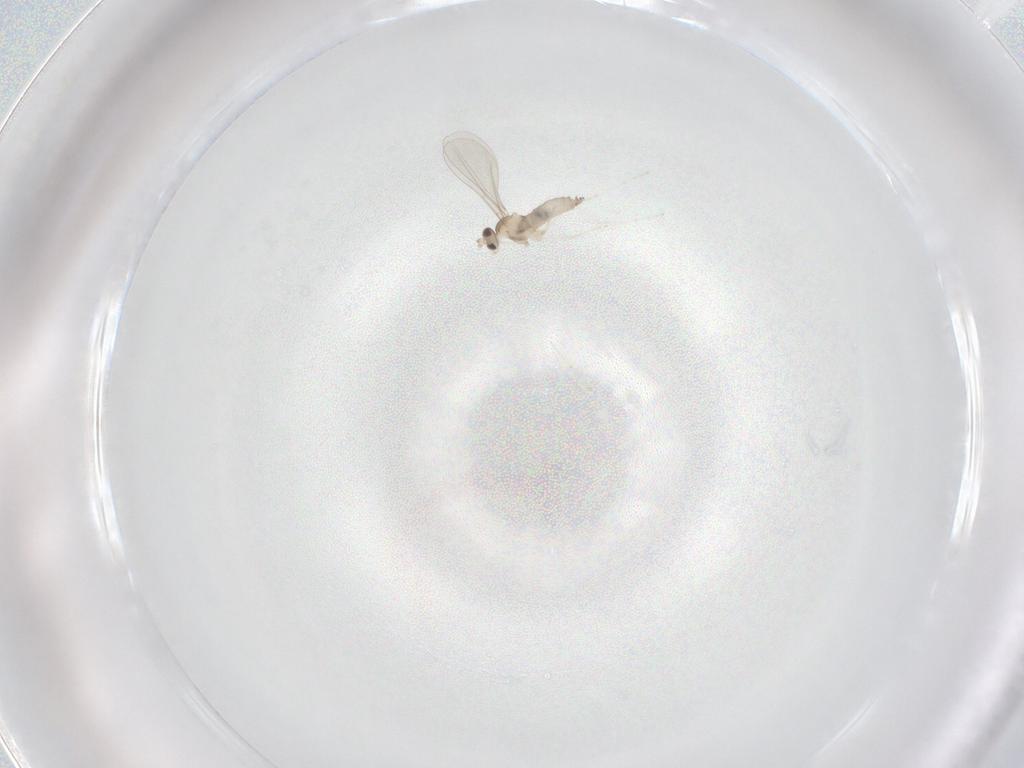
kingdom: Animalia
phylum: Arthropoda
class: Insecta
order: Diptera
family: Cecidomyiidae
